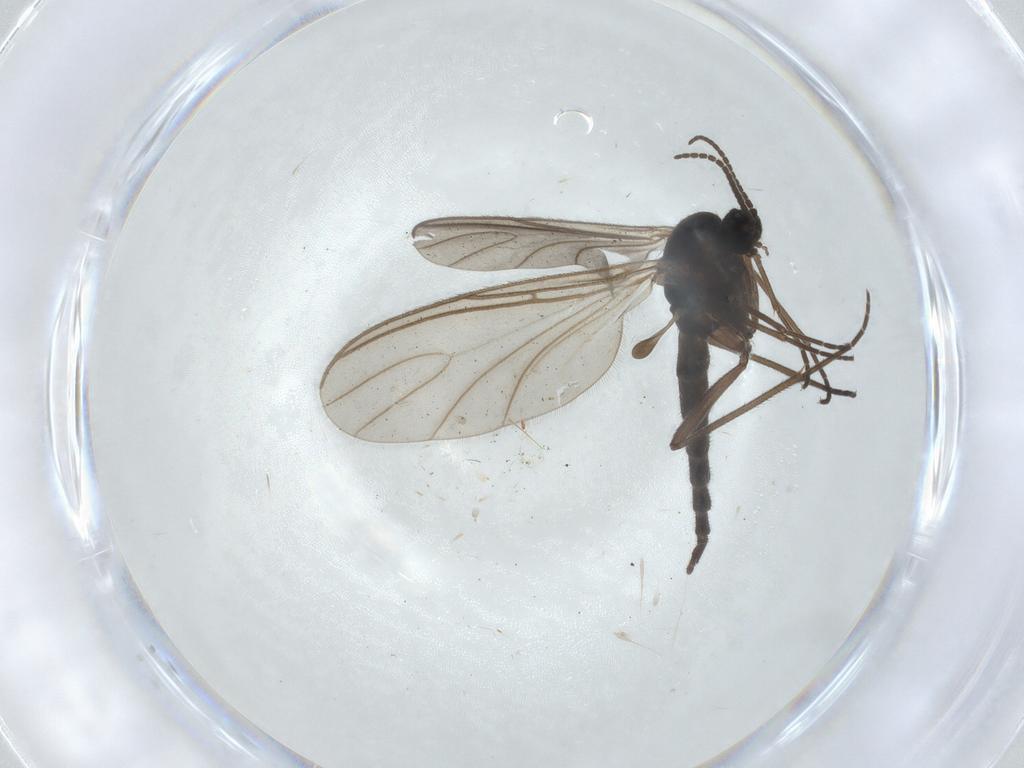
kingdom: Animalia
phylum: Arthropoda
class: Insecta
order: Diptera
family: Sciaridae
